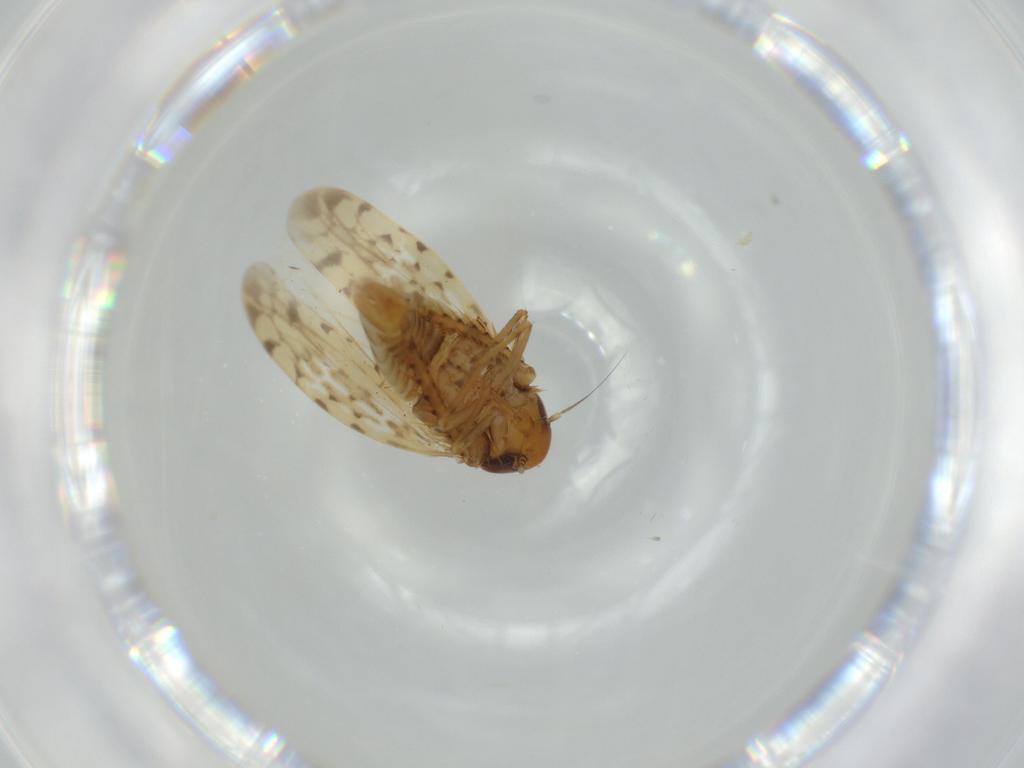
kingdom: Animalia
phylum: Arthropoda
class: Insecta
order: Hemiptera
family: Cicadellidae
